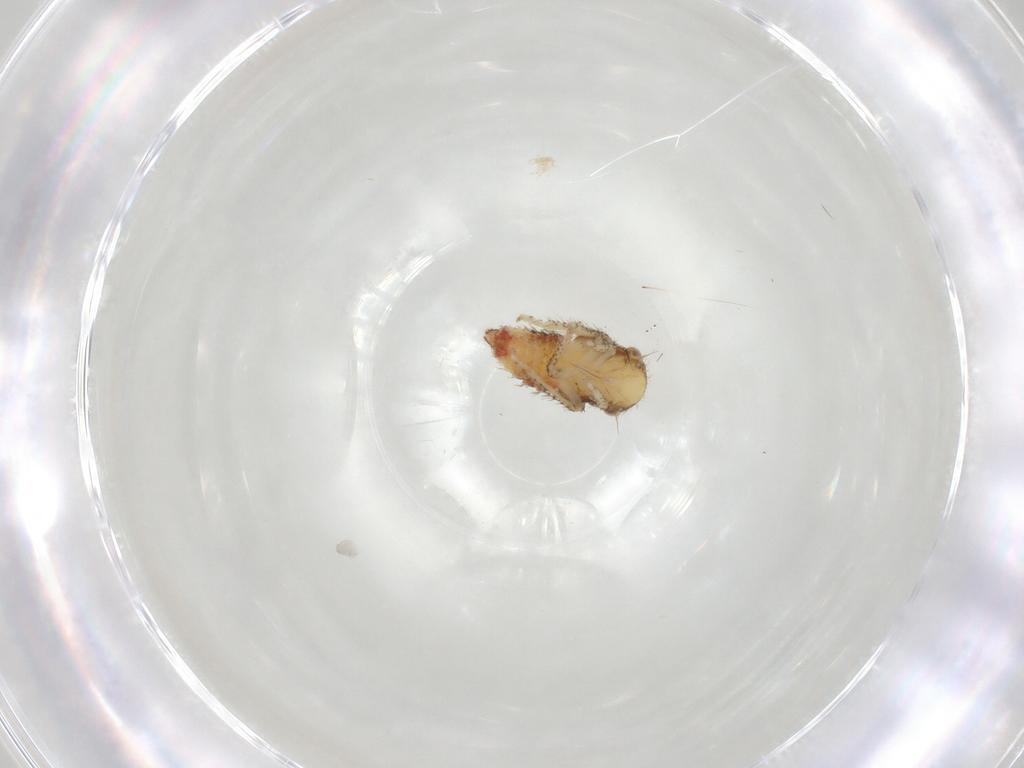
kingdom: Animalia
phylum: Arthropoda
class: Insecta
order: Hemiptera
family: Cicadellidae
